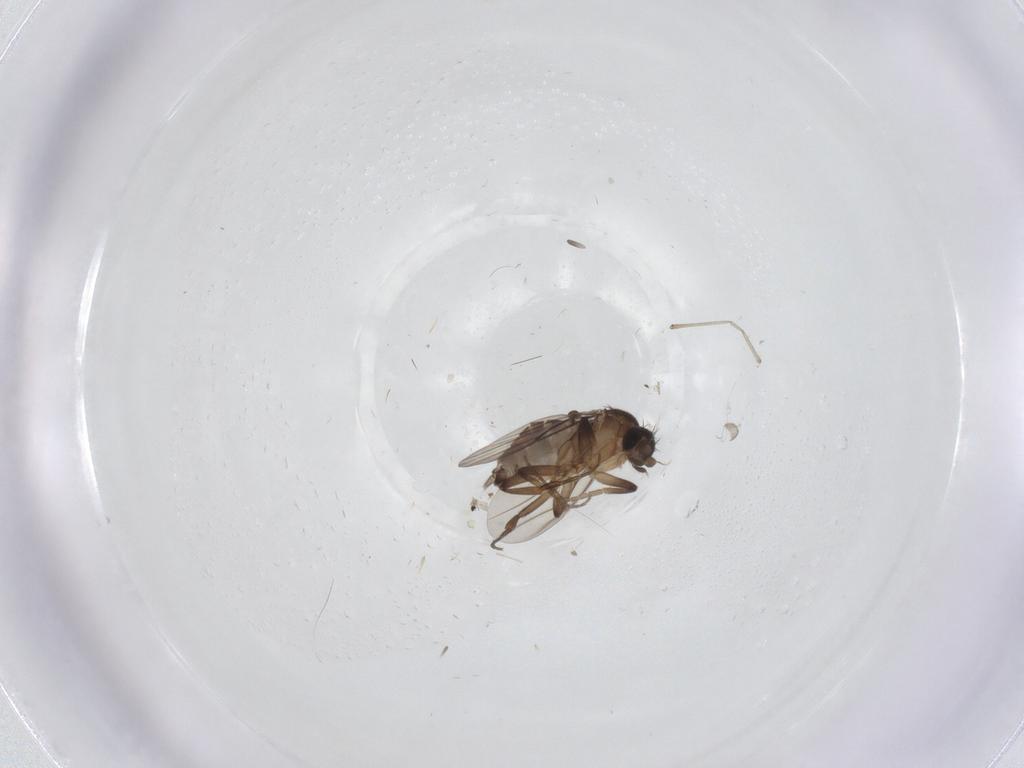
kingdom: Animalia
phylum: Arthropoda
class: Insecta
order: Diptera
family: Phoridae
